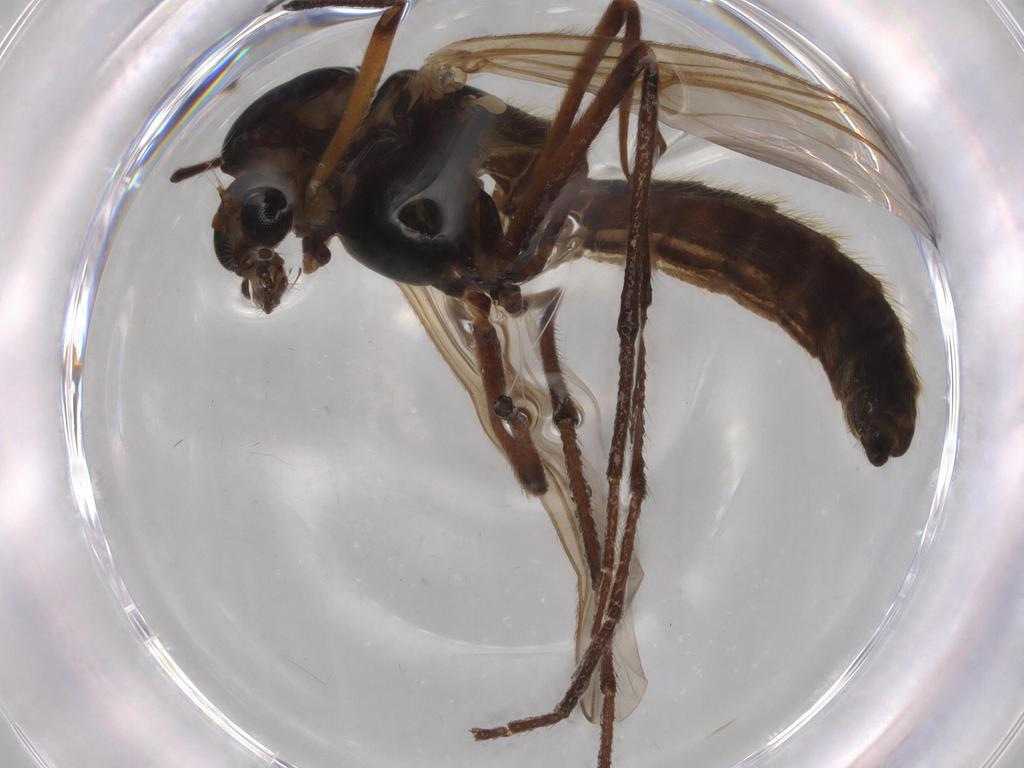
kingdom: Animalia
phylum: Arthropoda
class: Insecta
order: Diptera
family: Chironomidae
